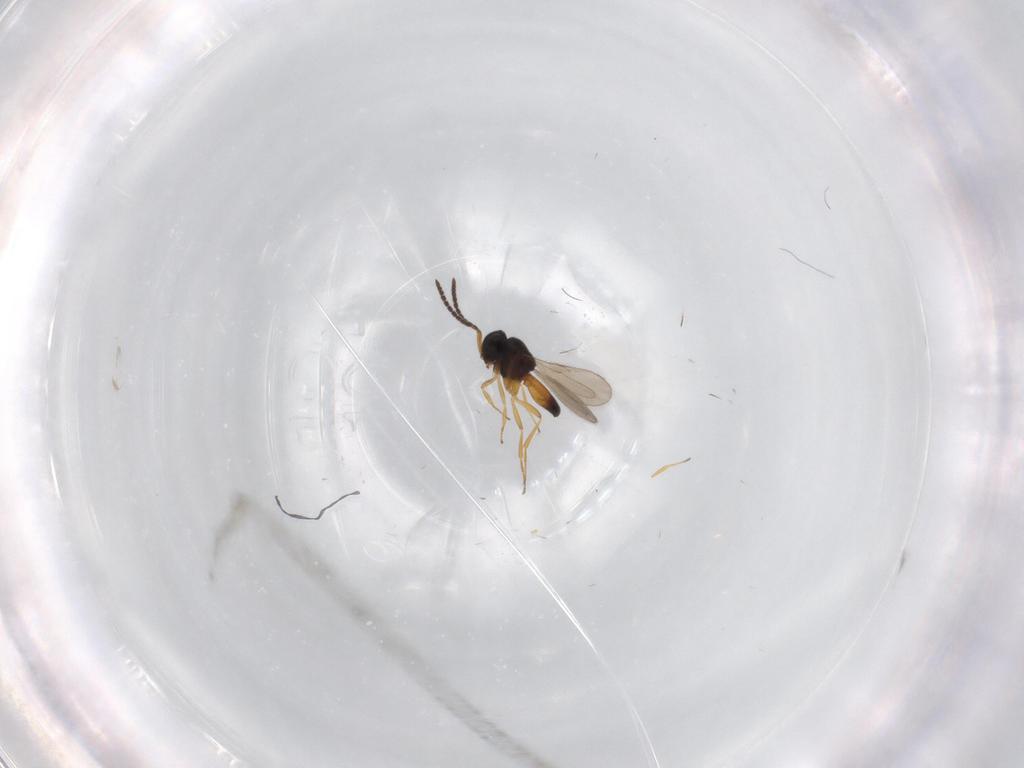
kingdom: Animalia
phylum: Arthropoda
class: Insecta
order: Hymenoptera
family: Scelionidae
